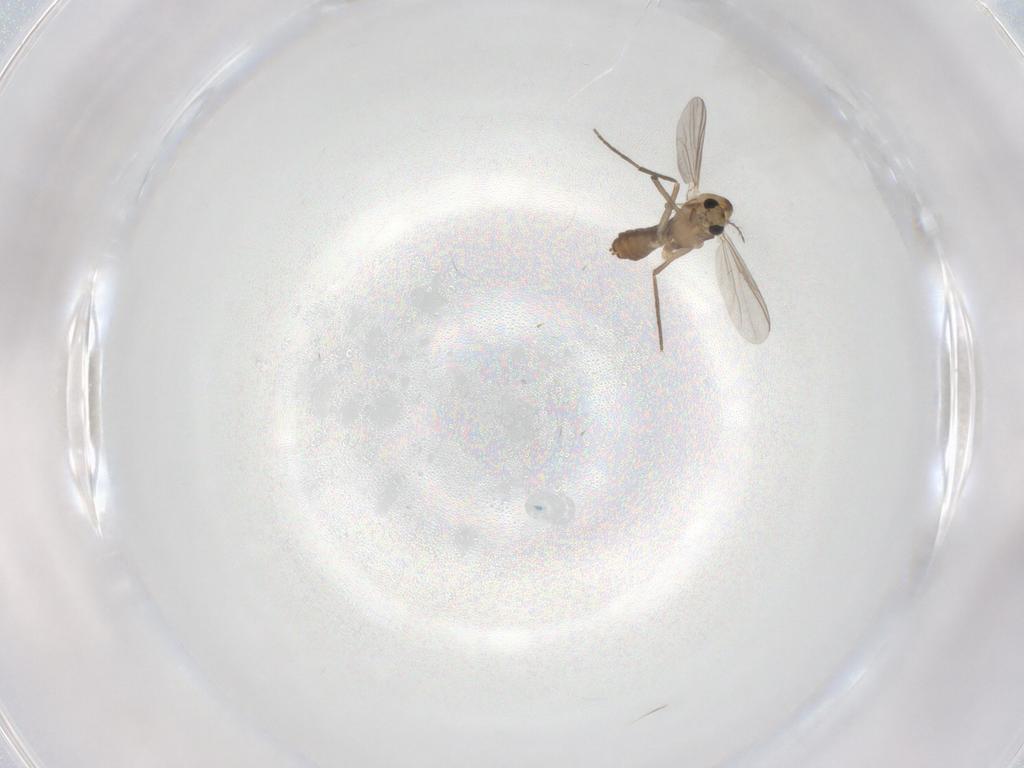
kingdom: Animalia
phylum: Arthropoda
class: Insecta
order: Diptera
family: Chironomidae
